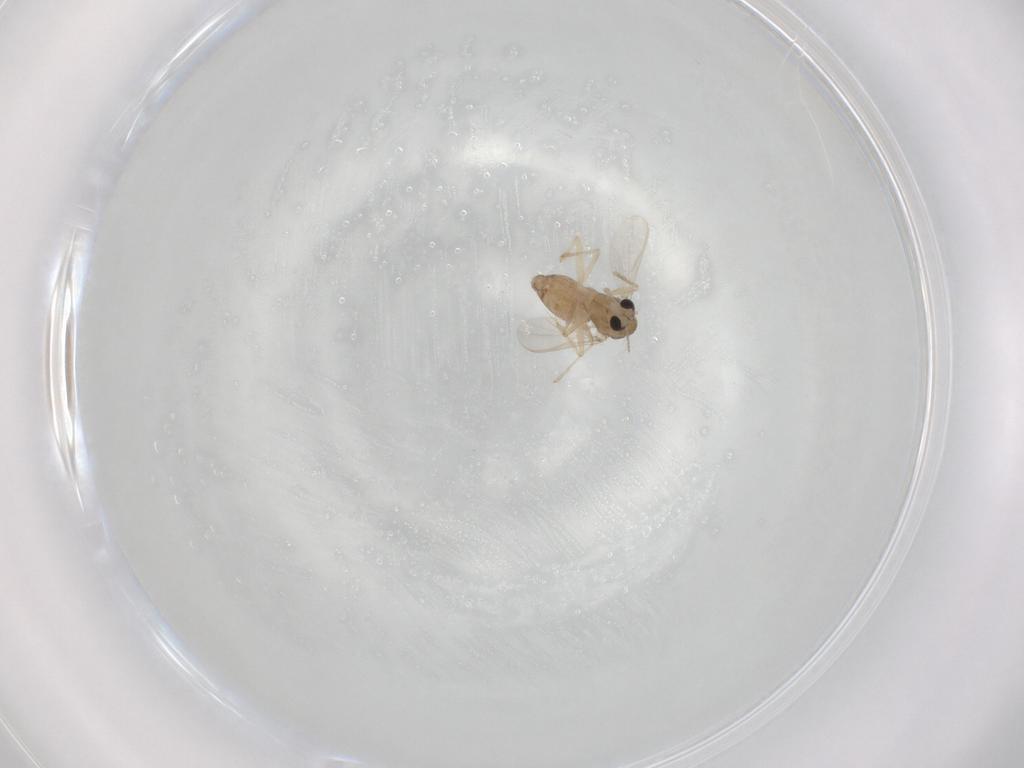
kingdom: Animalia
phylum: Arthropoda
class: Insecta
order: Diptera
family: Chironomidae
